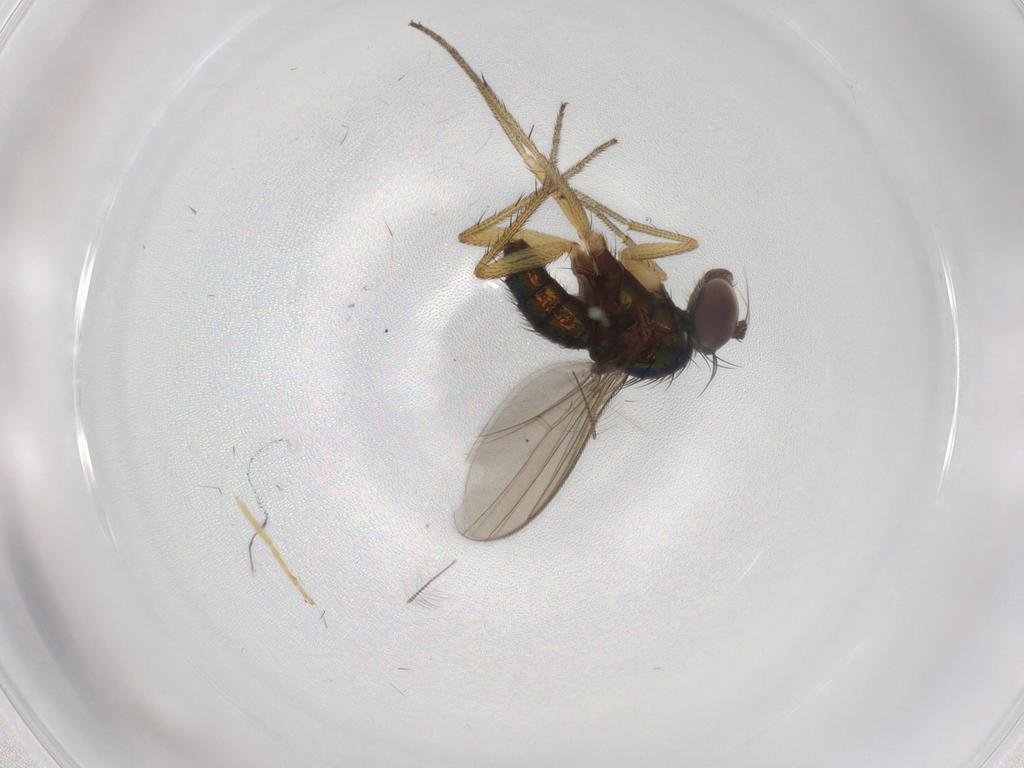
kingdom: Animalia
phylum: Arthropoda
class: Insecta
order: Diptera
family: Chironomidae
